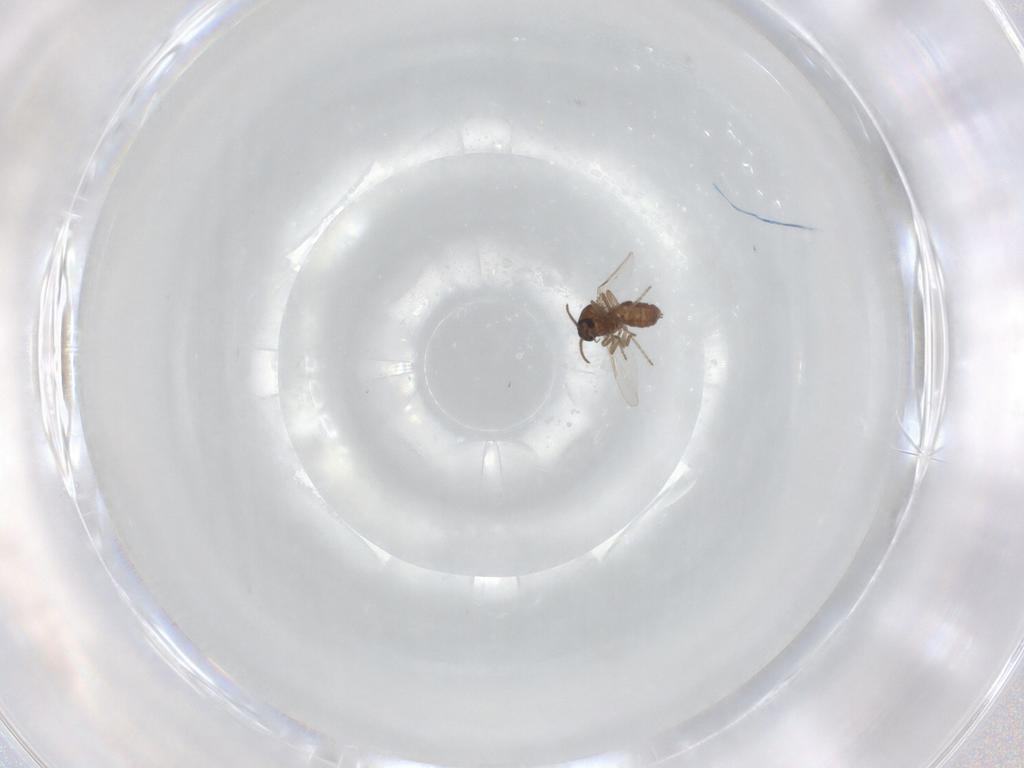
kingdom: Animalia
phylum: Arthropoda
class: Insecta
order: Diptera
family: Ceratopogonidae
